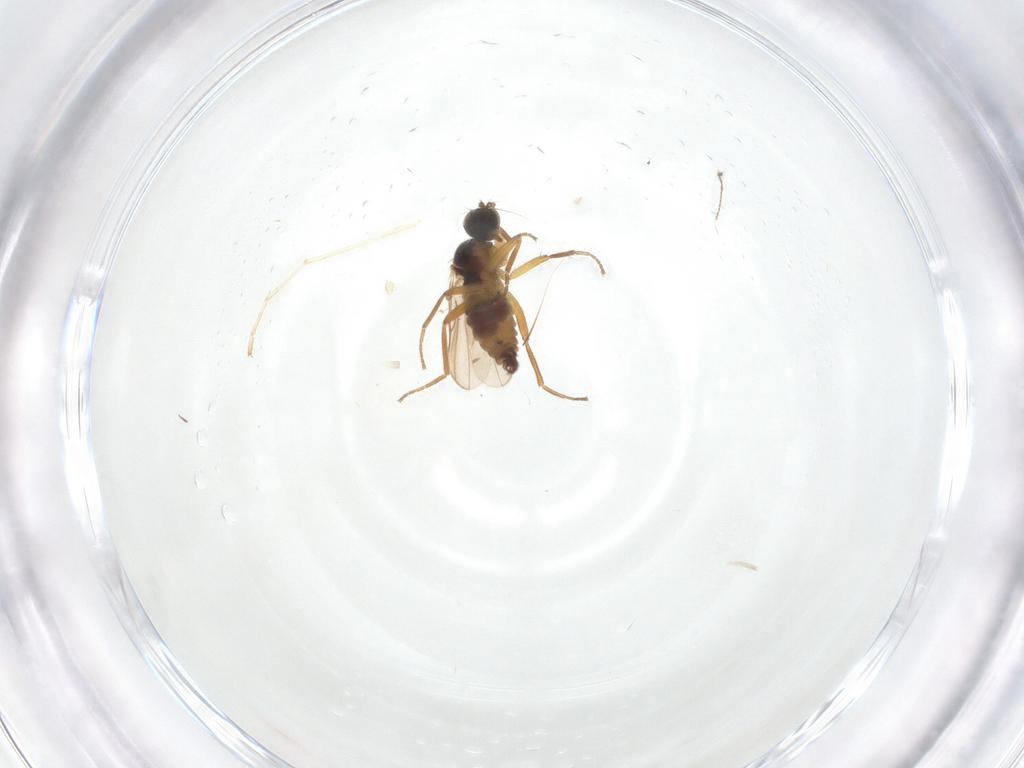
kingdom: Animalia
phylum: Arthropoda
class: Insecta
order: Diptera
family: Hybotidae
